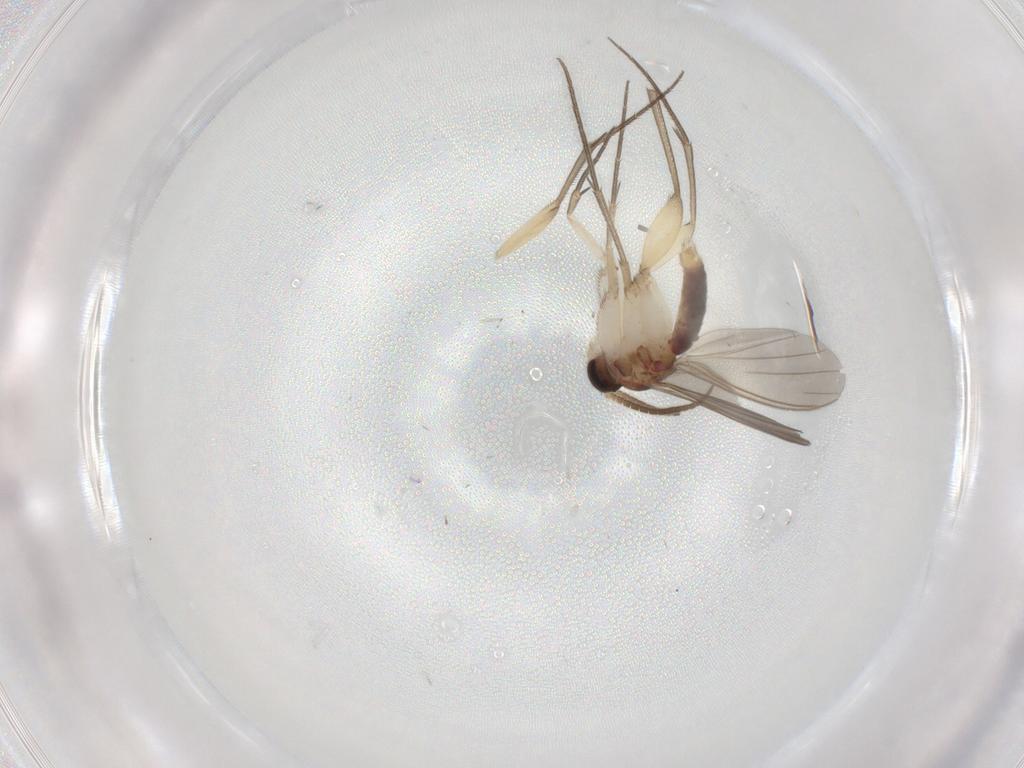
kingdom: Animalia
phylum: Arthropoda
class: Insecta
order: Diptera
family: Mycetophilidae
